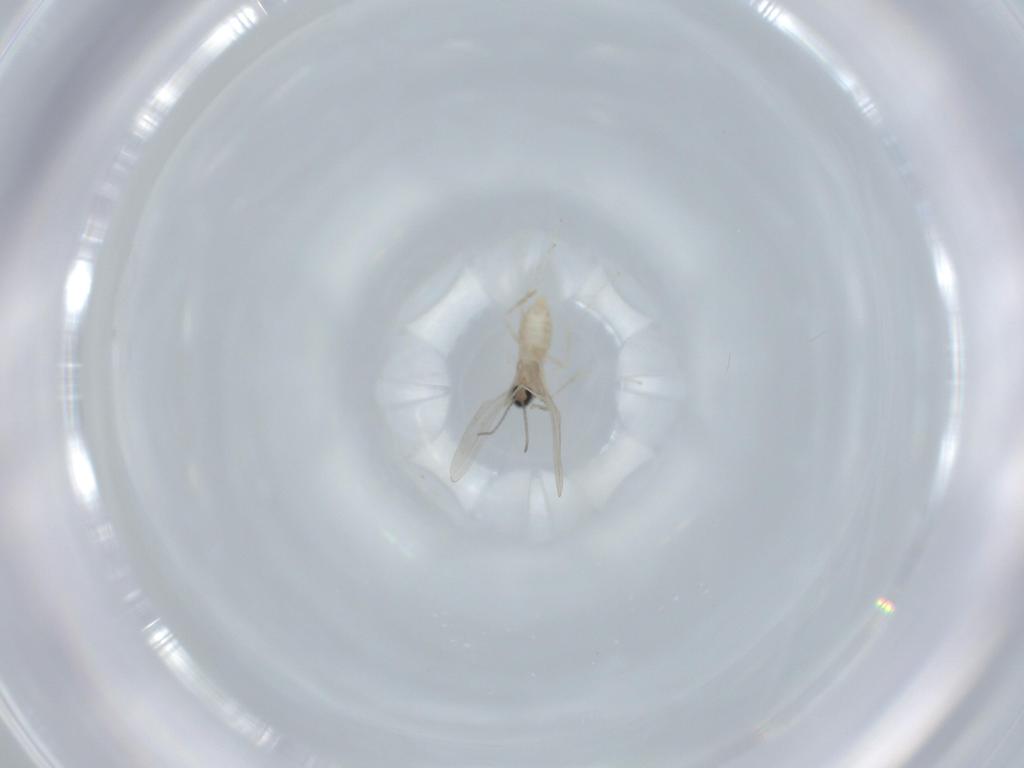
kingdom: Animalia
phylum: Arthropoda
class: Insecta
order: Diptera
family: Cecidomyiidae
